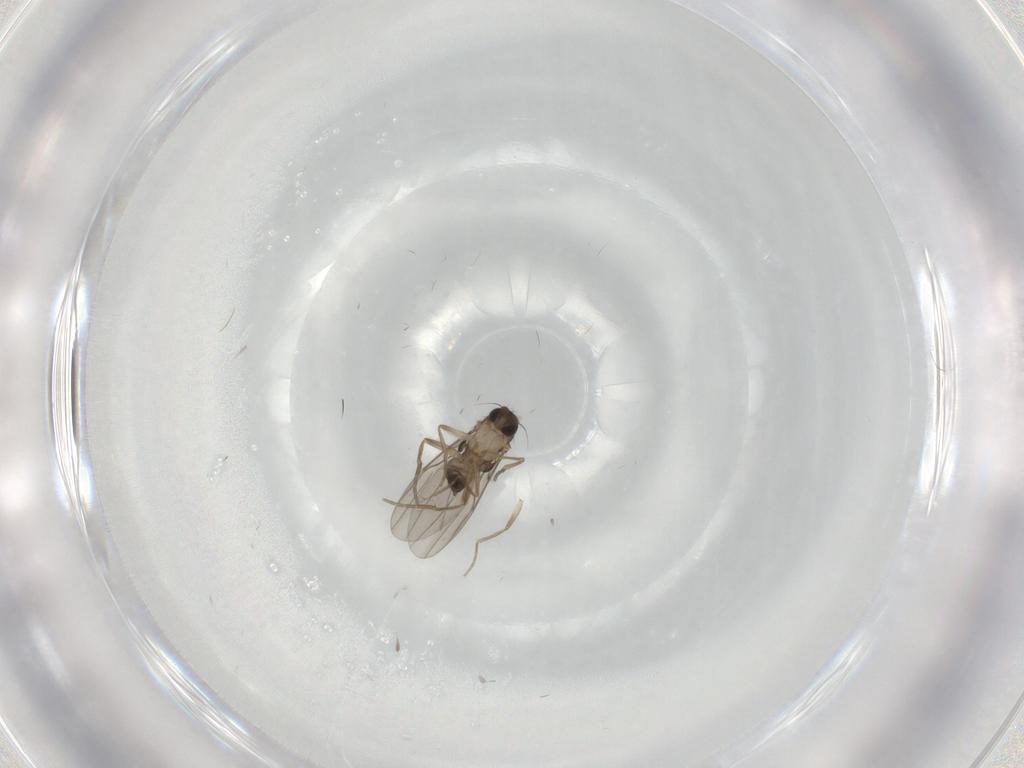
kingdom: Animalia
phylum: Arthropoda
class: Insecta
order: Diptera
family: Phoridae
